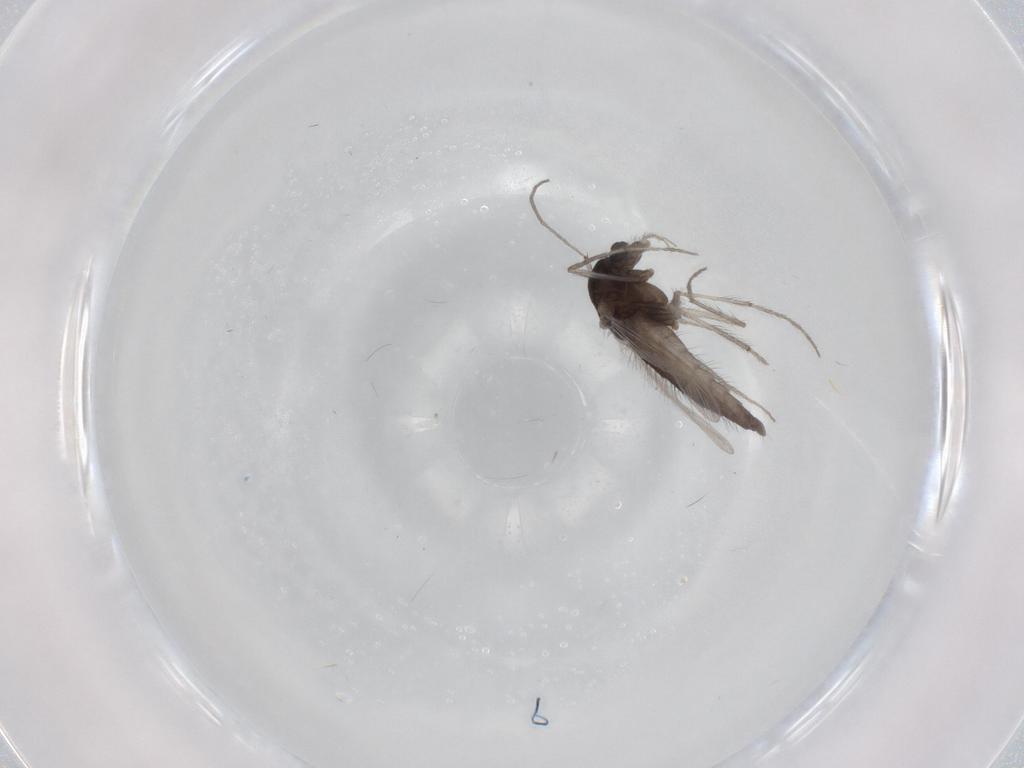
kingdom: Animalia
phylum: Arthropoda
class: Insecta
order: Diptera
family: Chironomidae
